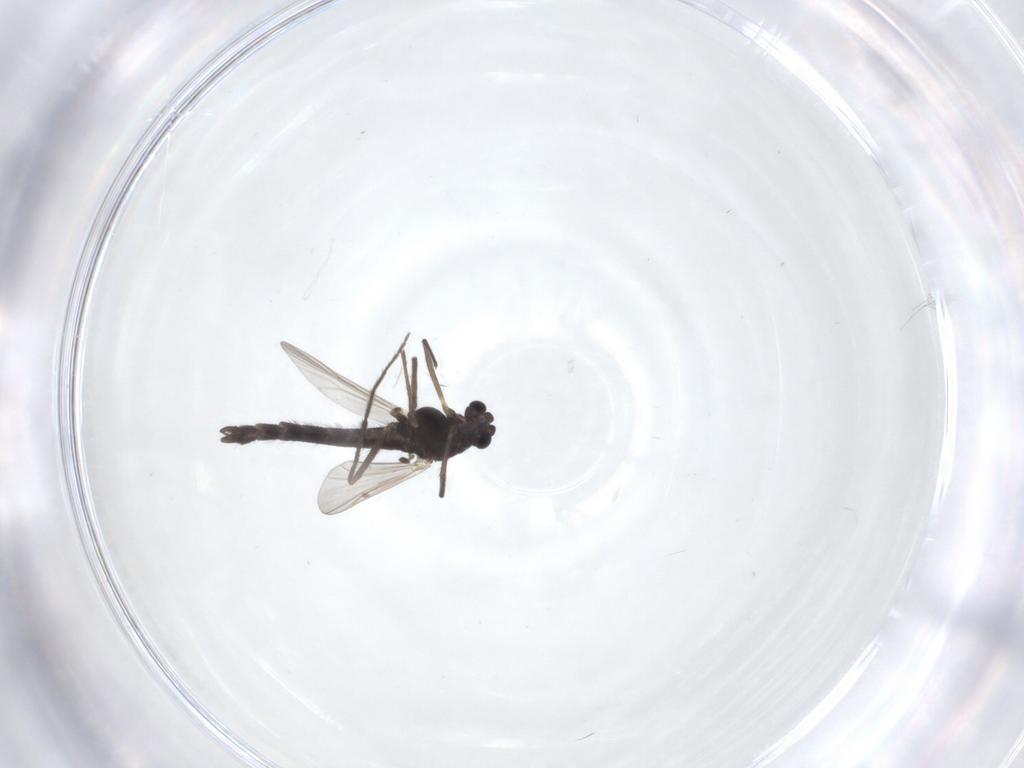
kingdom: Animalia
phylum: Arthropoda
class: Insecta
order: Diptera
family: Chironomidae
